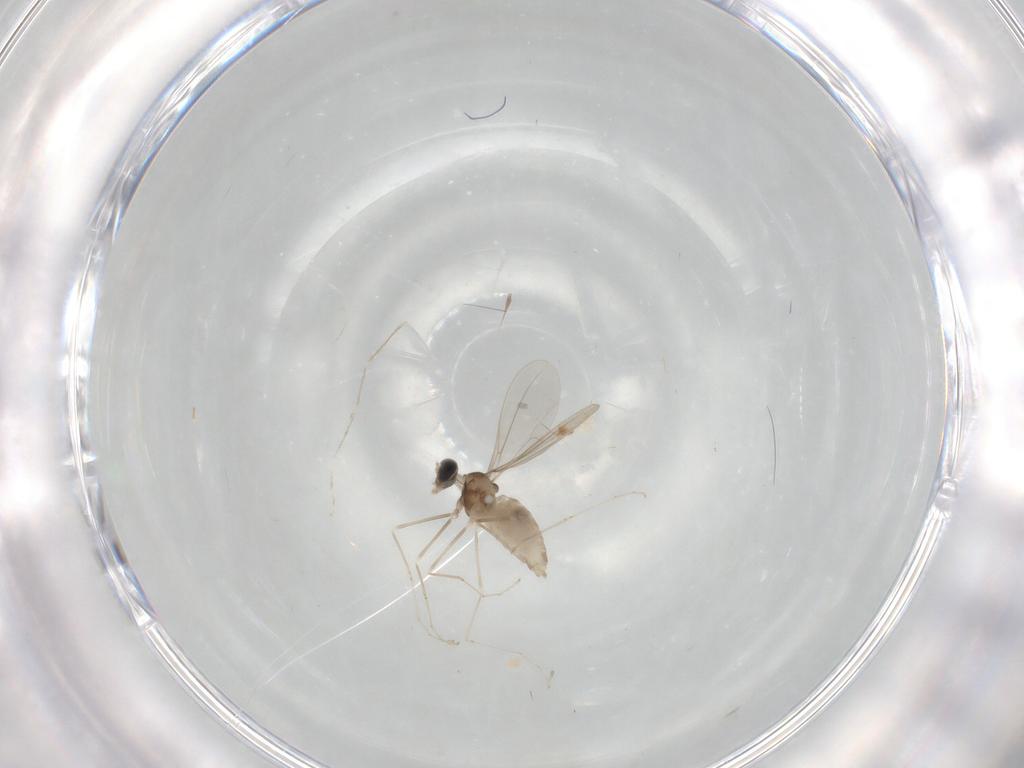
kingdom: Animalia
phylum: Arthropoda
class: Insecta
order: Diptera
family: Cecidomyiidae
